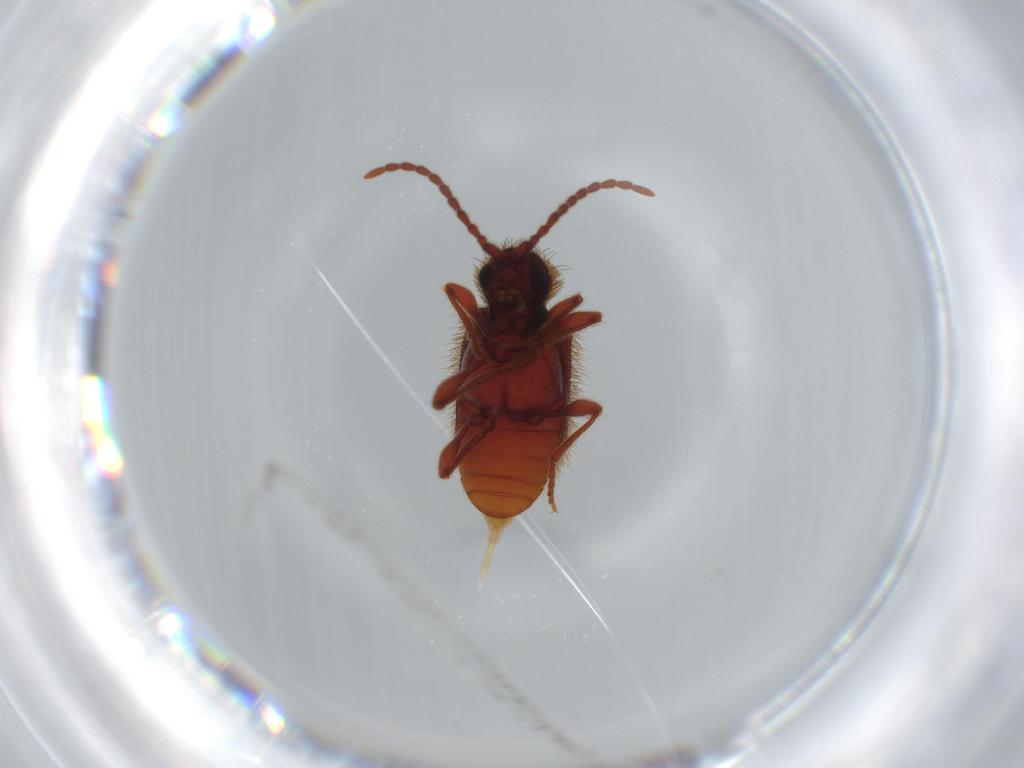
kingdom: Animalia
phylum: Arthropoda
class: Insecta
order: Coleoptera
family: Ptinidae
